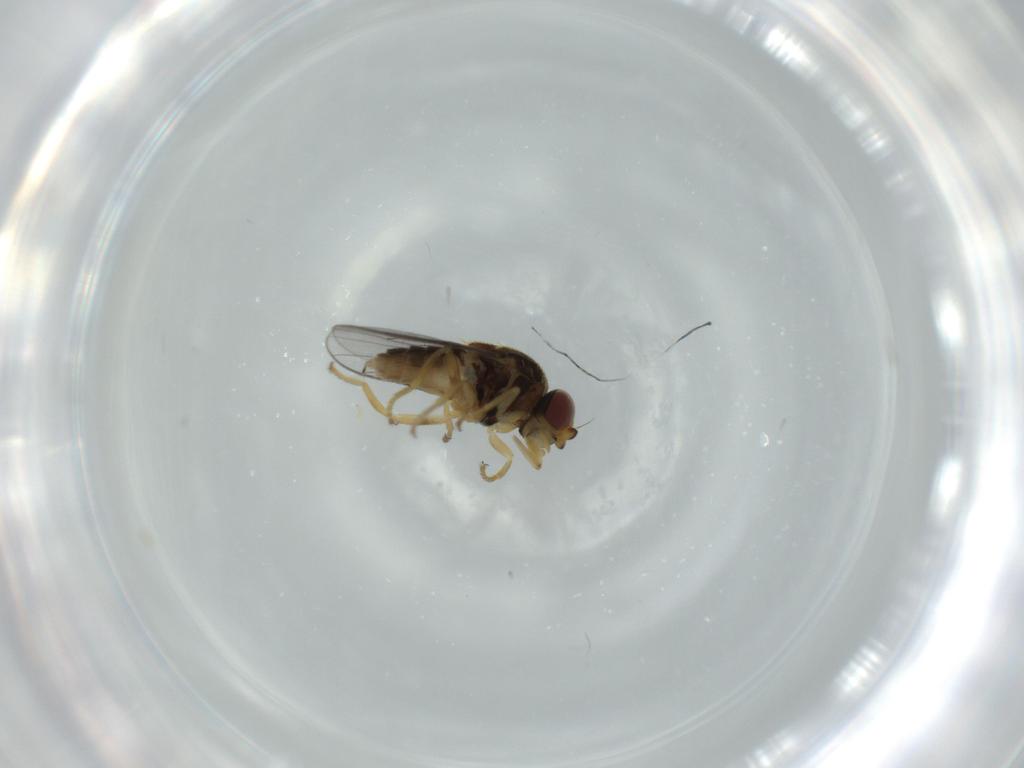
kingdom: Animalia
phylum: Arthropoda
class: Insecta
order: Diptera
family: Chloropidae
